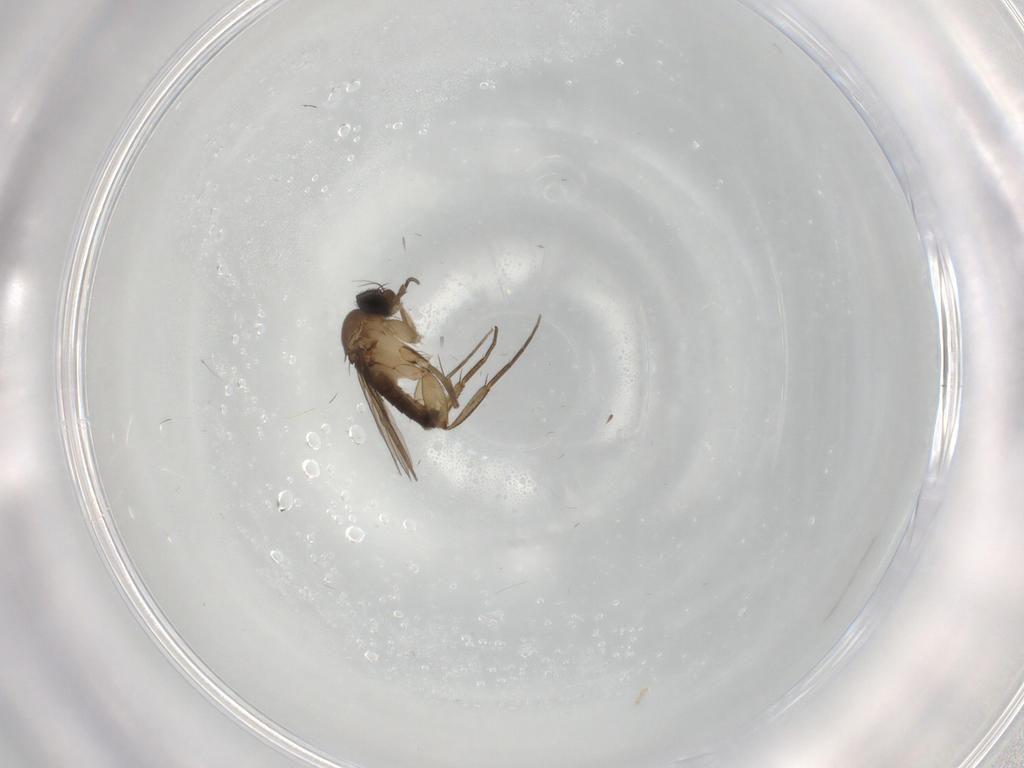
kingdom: Animalia
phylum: Arthropoda
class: Insecta
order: Diptera
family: Phoridae
